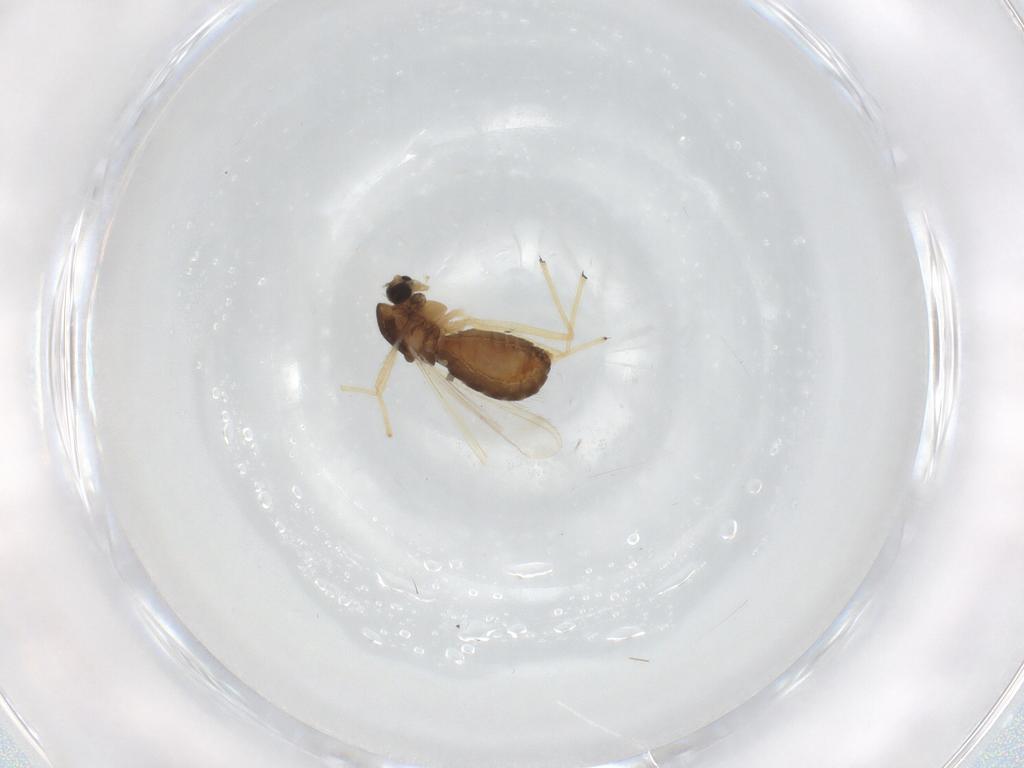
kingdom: Animalia
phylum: Arthropoda
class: Insecta
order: Diptera
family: Chironomidae
